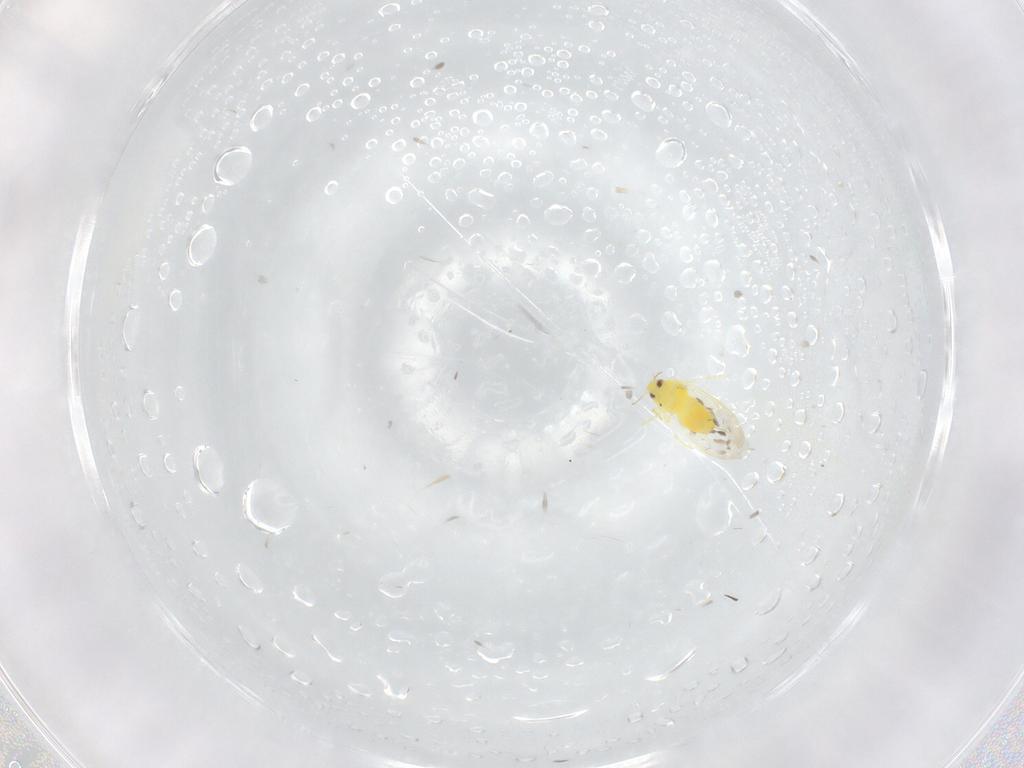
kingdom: Animalia
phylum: Arthropoda
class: Insecta
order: Hemiptera
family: Aleyrodidae
